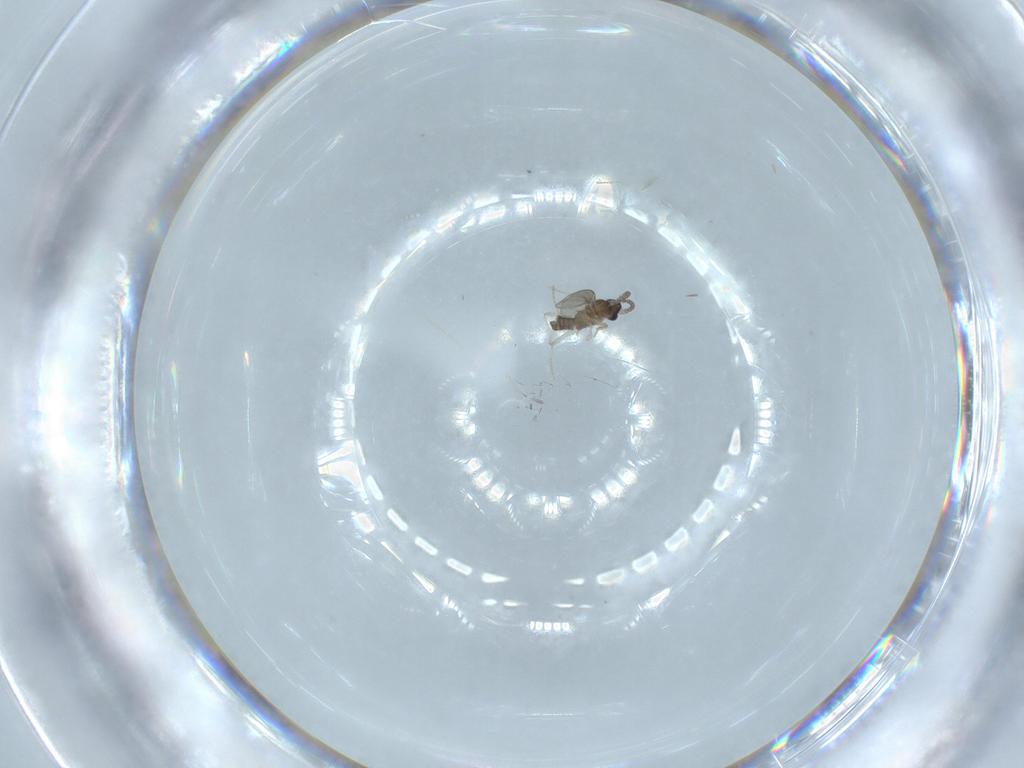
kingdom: Animalia
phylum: Arthropoda
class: Insecta
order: Diptera
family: Cecidomyiidae
